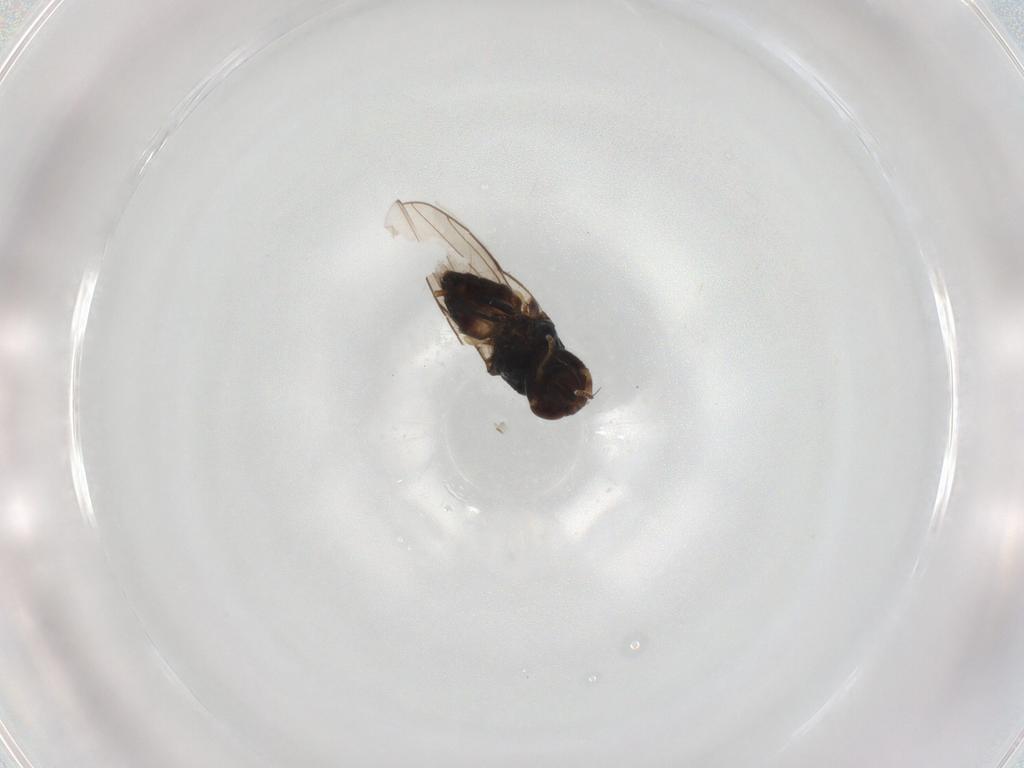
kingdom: Animalia
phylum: Arthropoda
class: Insecta
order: Diptera
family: Chloropidae
